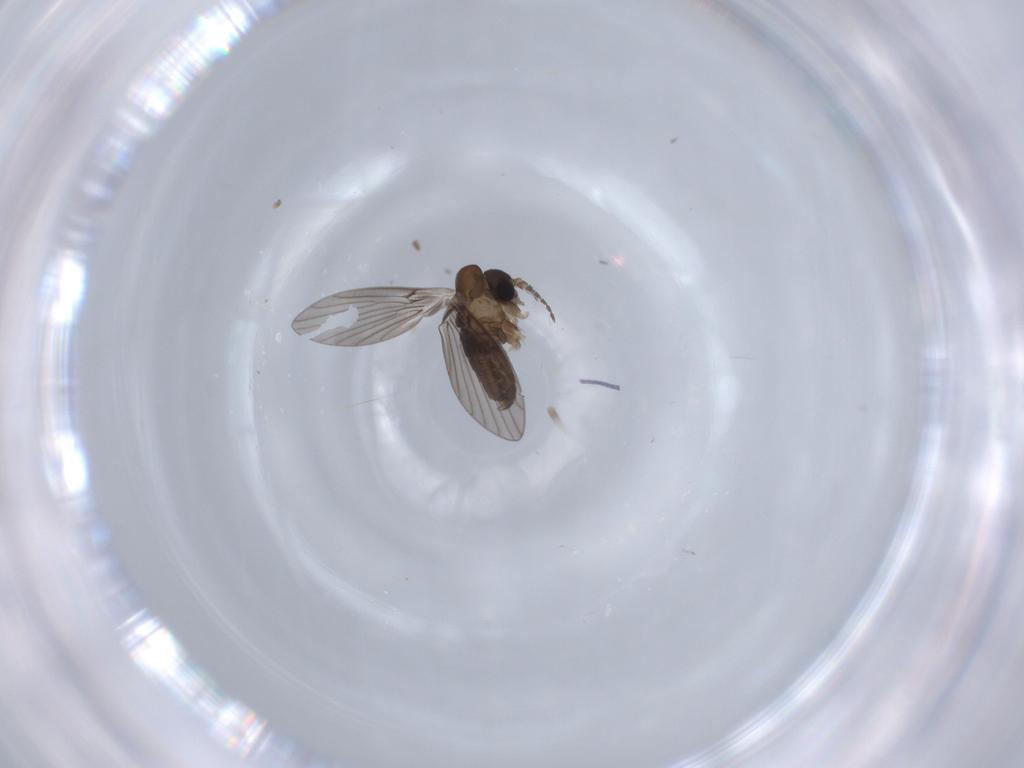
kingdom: Animalia
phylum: Arthropoda
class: Insecta
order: Diptera
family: Psychodidae
